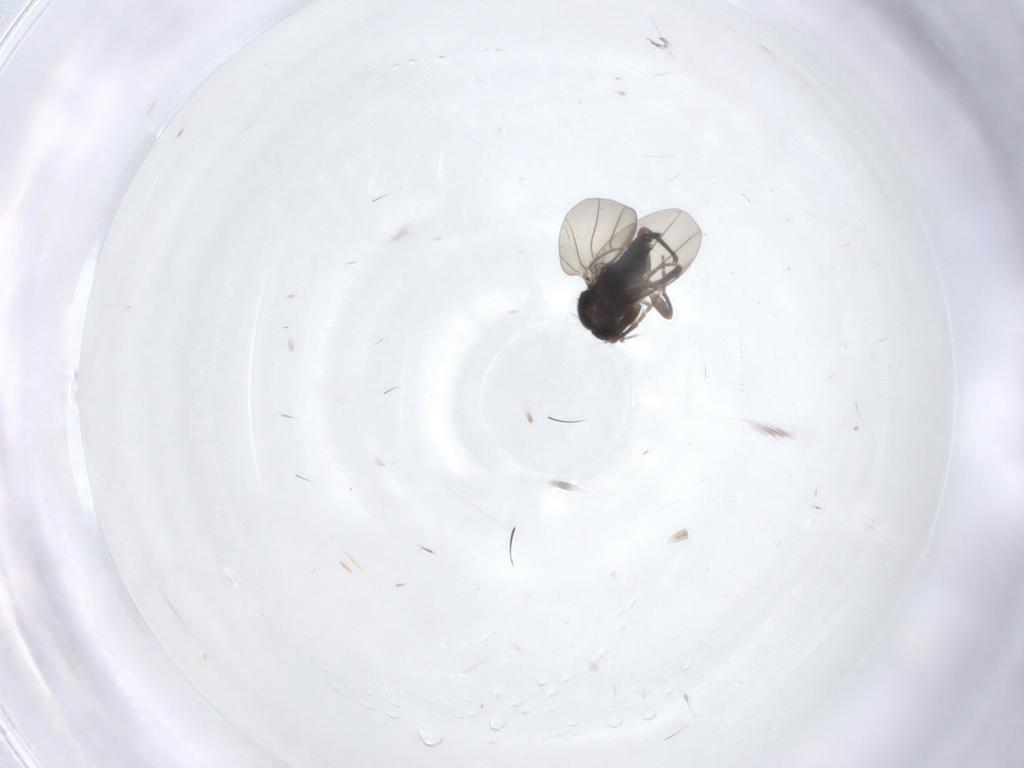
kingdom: Animalia
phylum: Arthropoda
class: Insecta
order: Diptera
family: Phoridae
